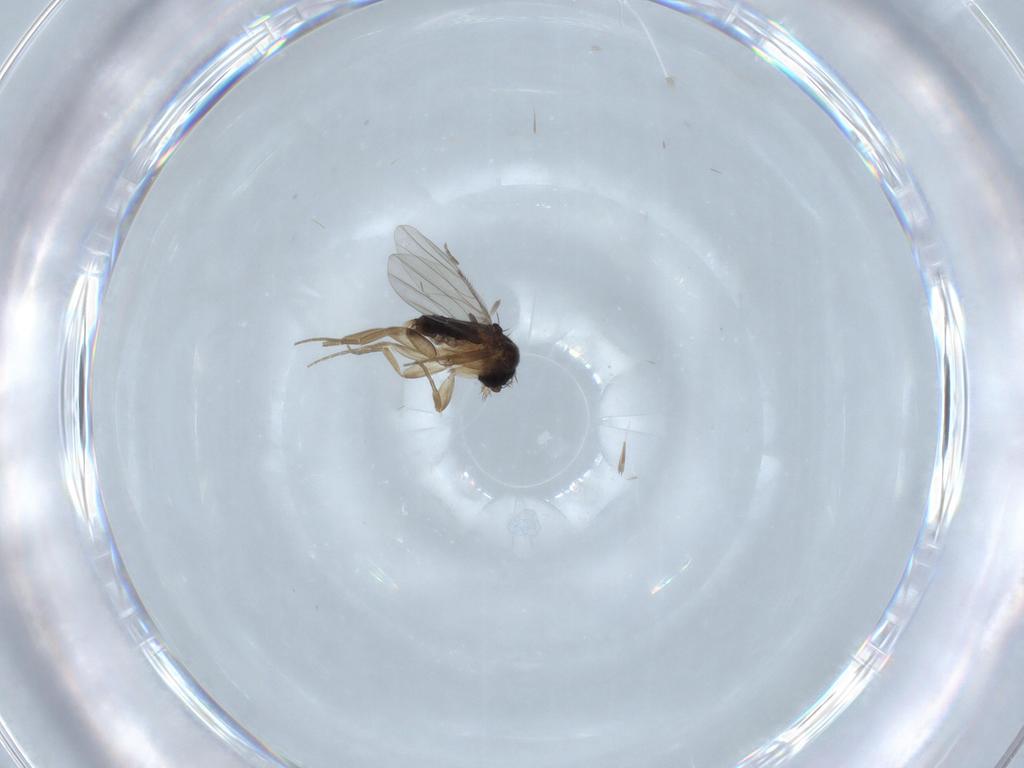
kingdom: Animalia
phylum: Arthropoda
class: Insecta
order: Diptera
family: Phoridae
